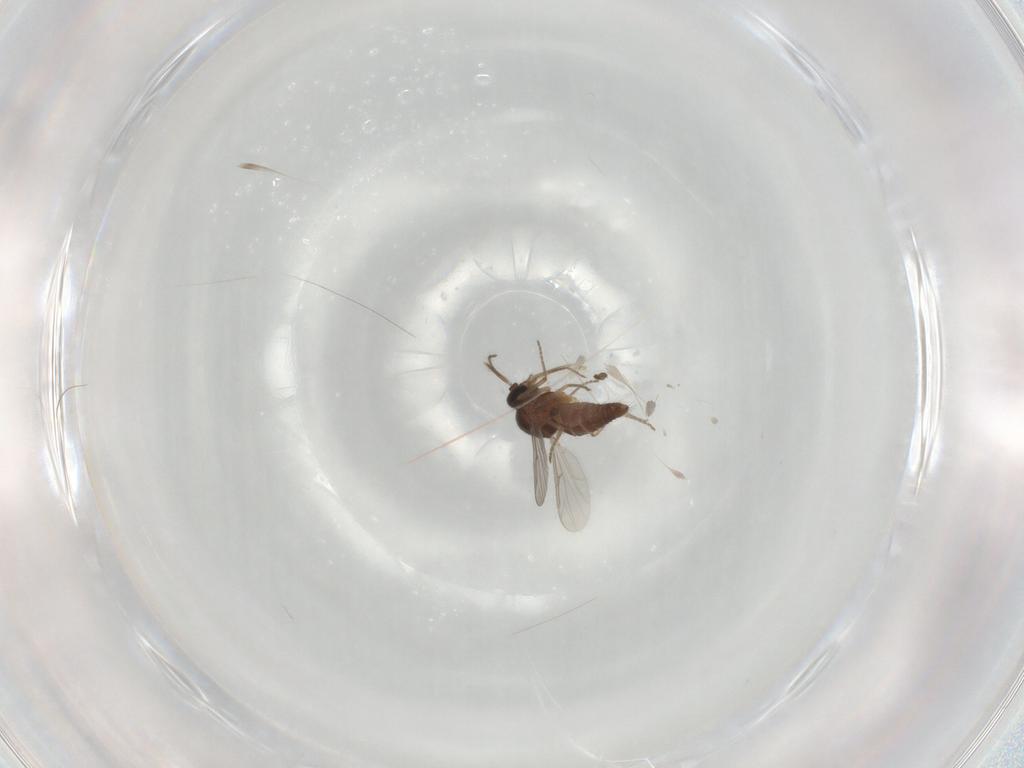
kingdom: Animalia
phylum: Arthropoda
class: Insecta
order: Diptera
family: Ceratopogonidae
